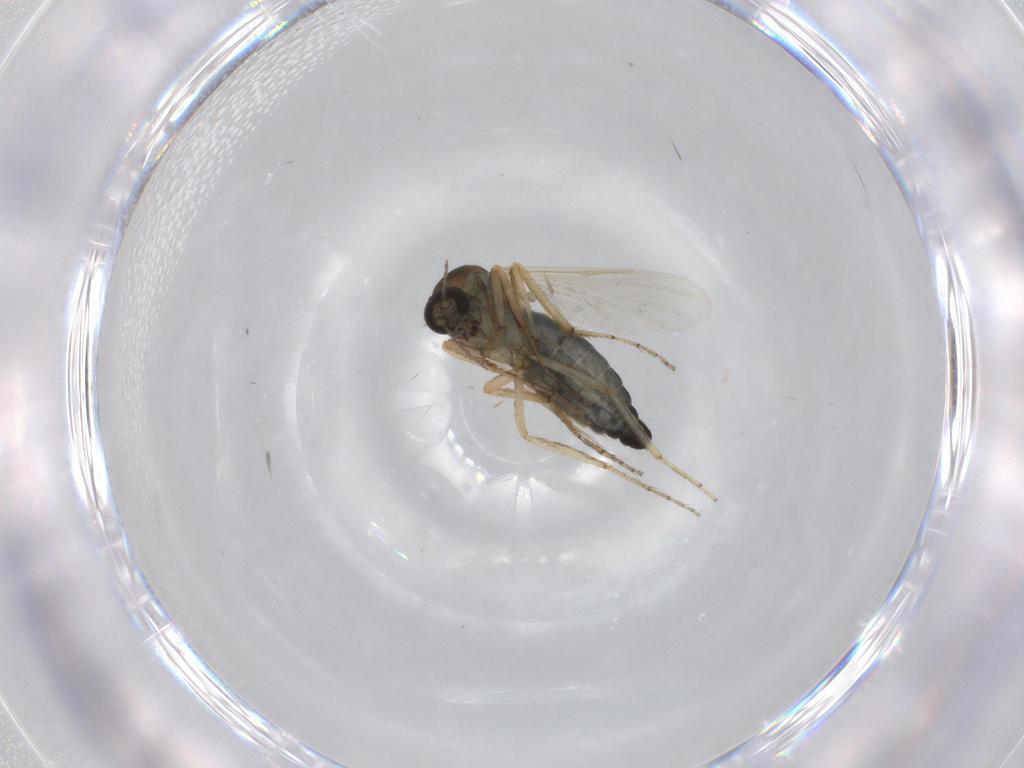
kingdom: Animalia
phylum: Arthropoda
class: Insecta
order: Diptera
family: Ceratopogonidae
